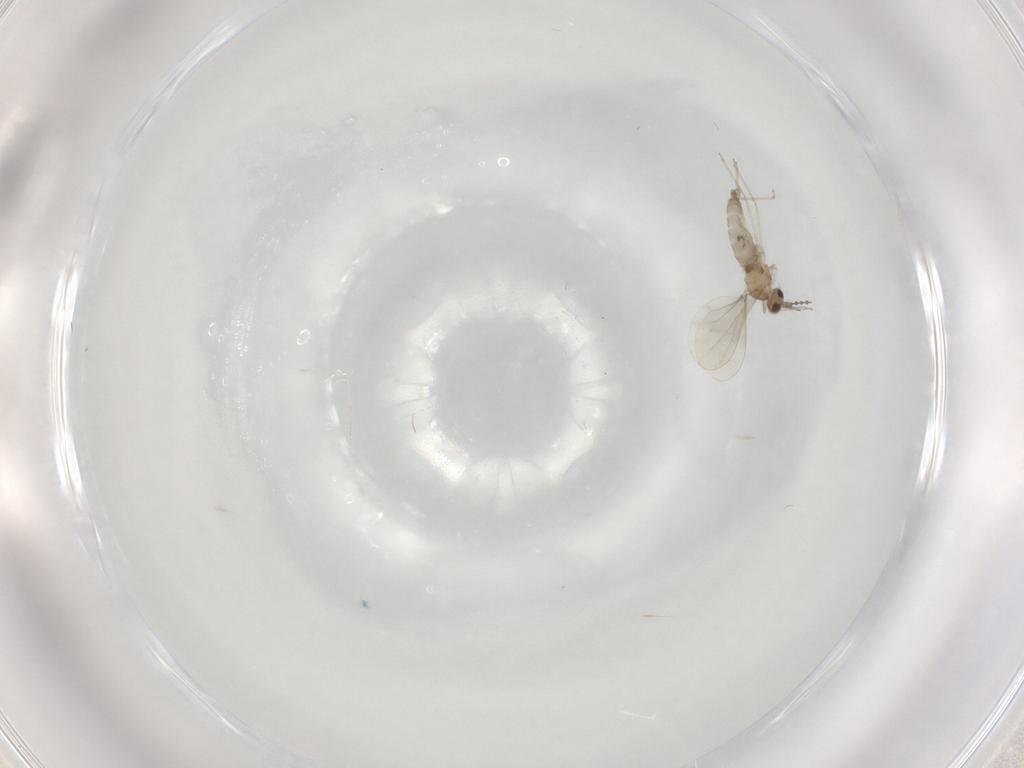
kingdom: Animalia
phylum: Arthropoda
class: Insecta
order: Diptera
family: Cecidomyiidae
